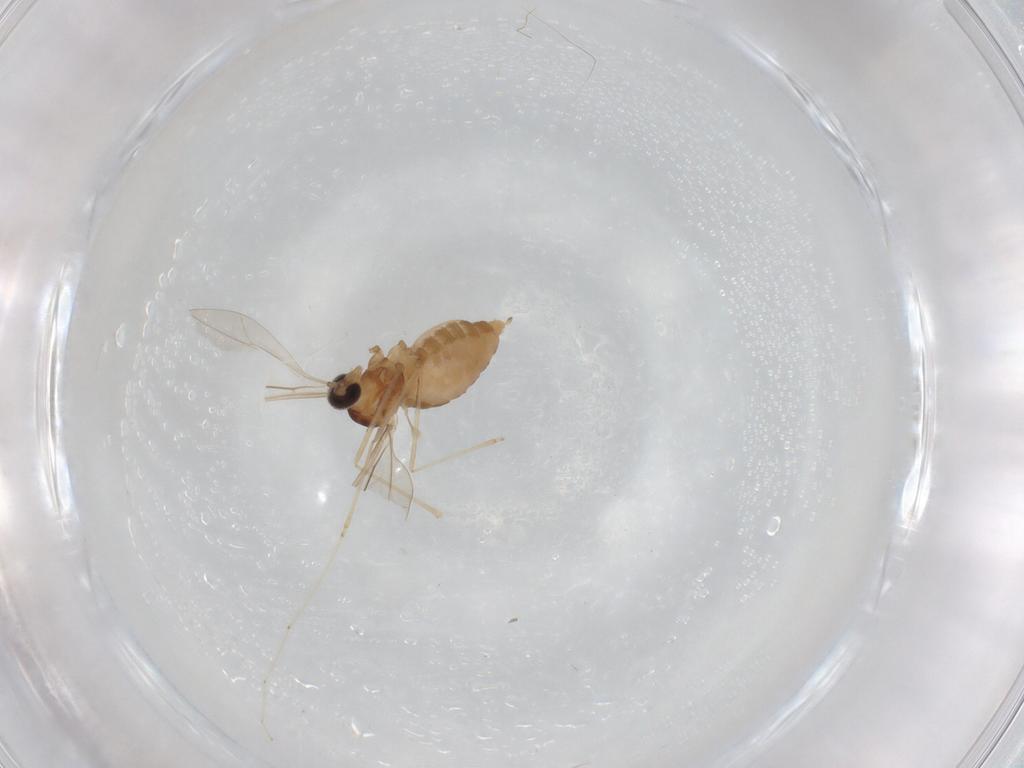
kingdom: Animalia
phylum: Arthropoda
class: Insecta
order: Diptera
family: Cecidomyiidae
